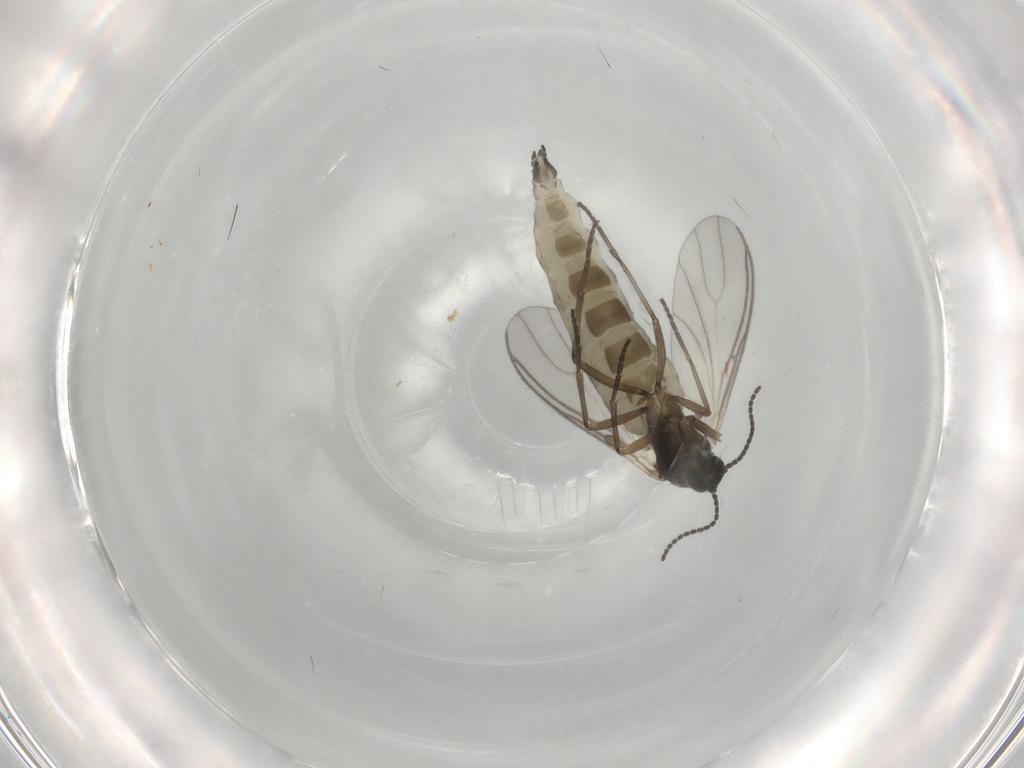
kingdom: Animalia
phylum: Arthropoda
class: Insecta
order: Diptera
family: Sciaridae
